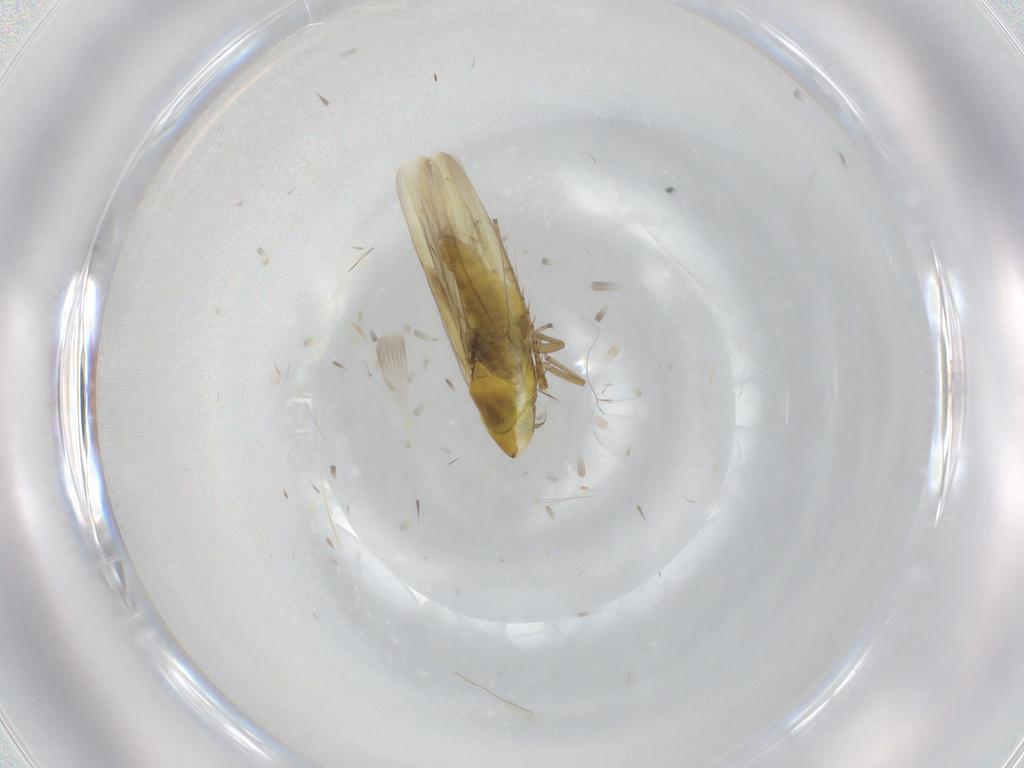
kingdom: Animalia
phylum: Arthropoda
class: Insecta
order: Hemiptera
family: Cicadellidae
